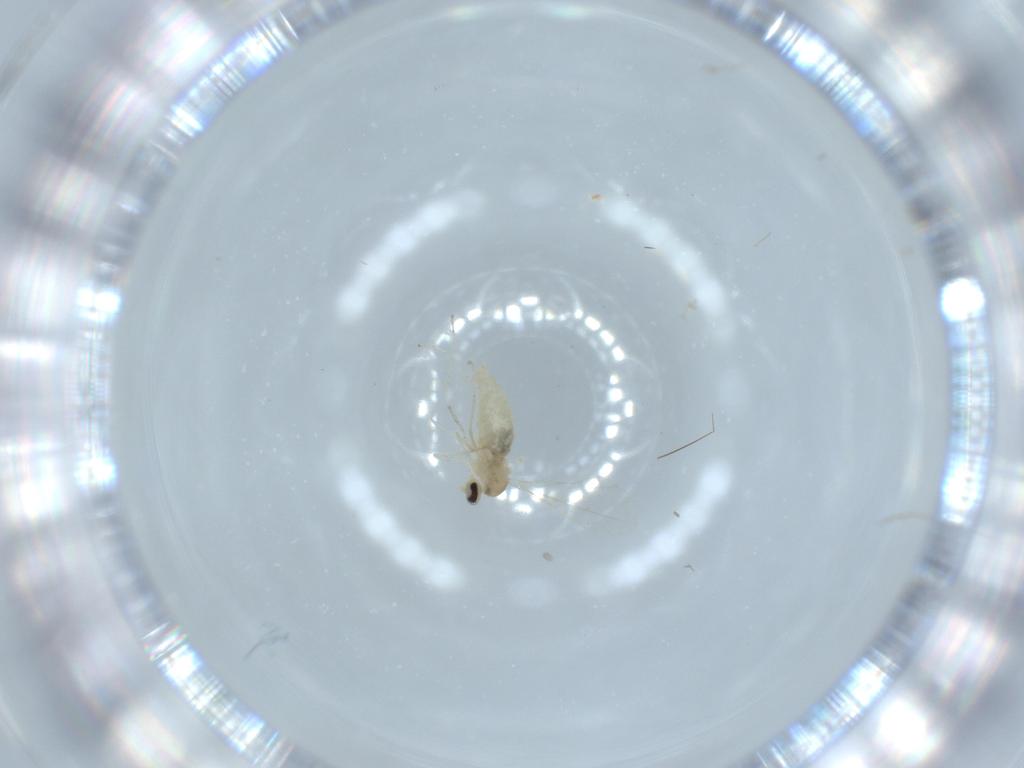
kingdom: Animalia
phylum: Arthropoda
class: Insecta
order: Diptera
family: Cecidomyiidae
